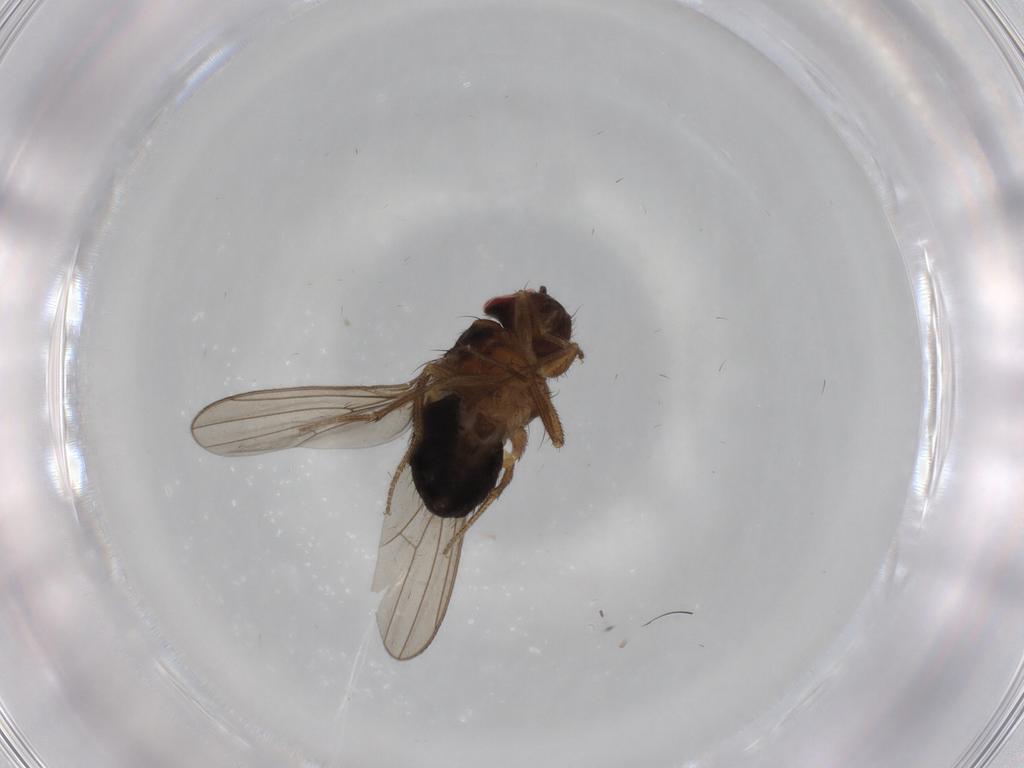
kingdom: Animalia
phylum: Arthropoda
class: Insecta
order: Diptera
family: Drosophilidae
